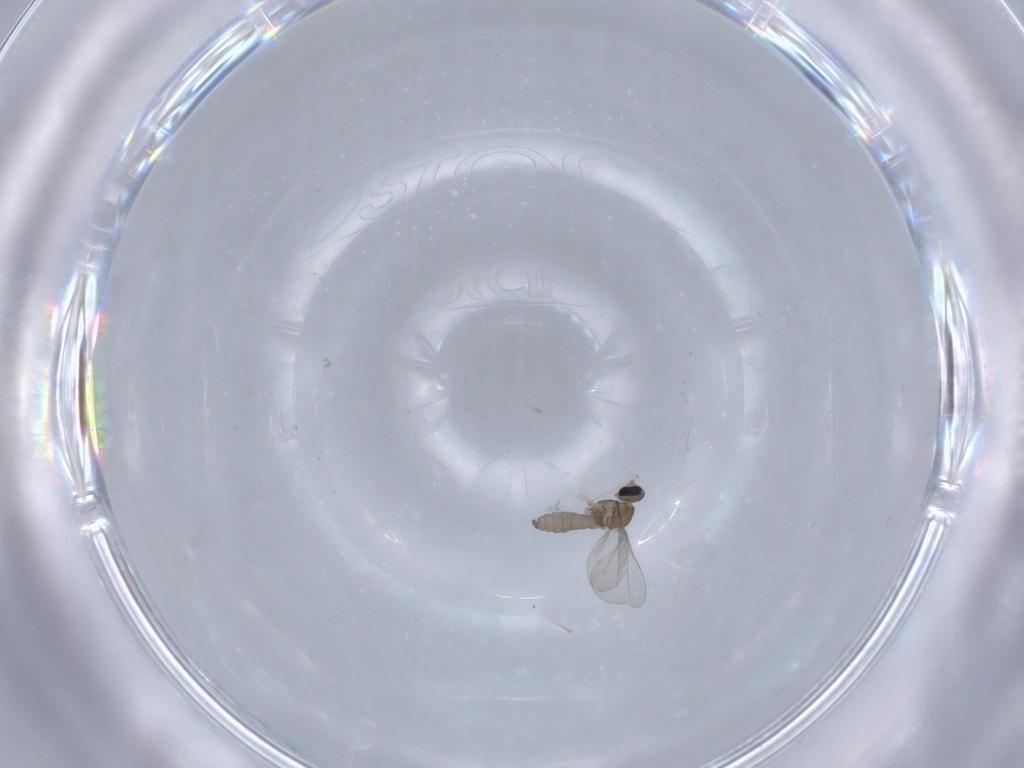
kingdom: Animalia
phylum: Arthropoda
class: Insecta
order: Diptera
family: Cecidomyiidae
